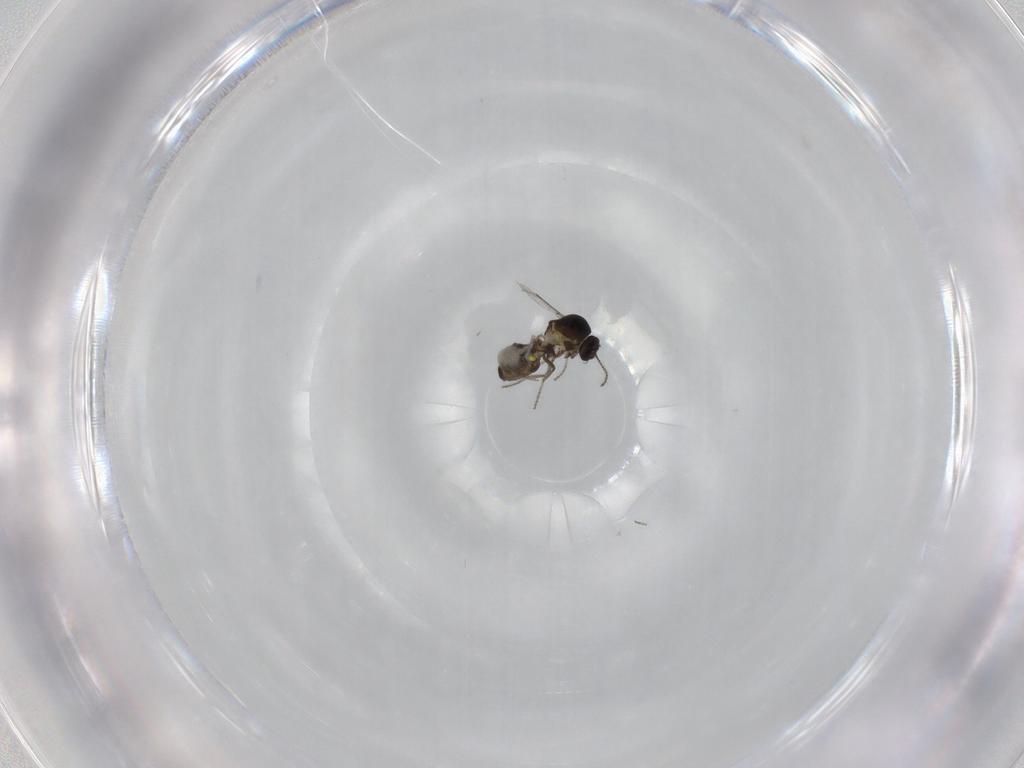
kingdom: Animalia
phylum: Arthropoda
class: Insecta
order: Diptera
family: Ceratopogonidae
